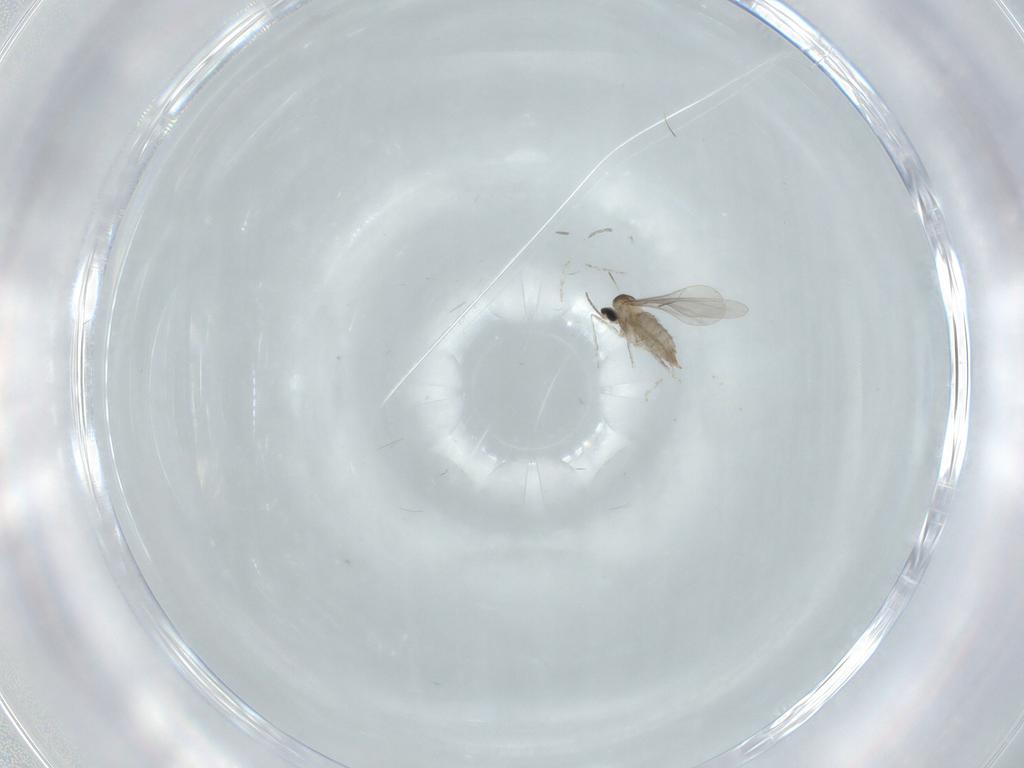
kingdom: Animalia
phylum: Arthropoda
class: Insecta
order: Diptera
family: Cecidomyiidae
